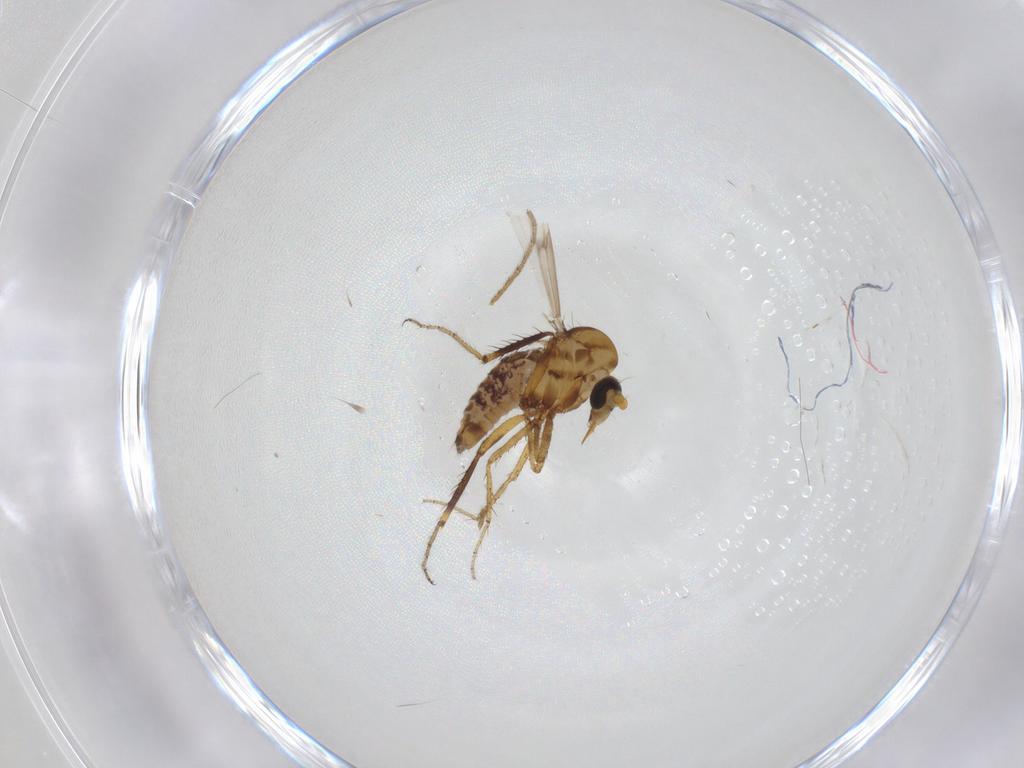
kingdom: Animalia
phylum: Arthropoda
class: Insecta
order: Diptera
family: Ceratopogonidae
